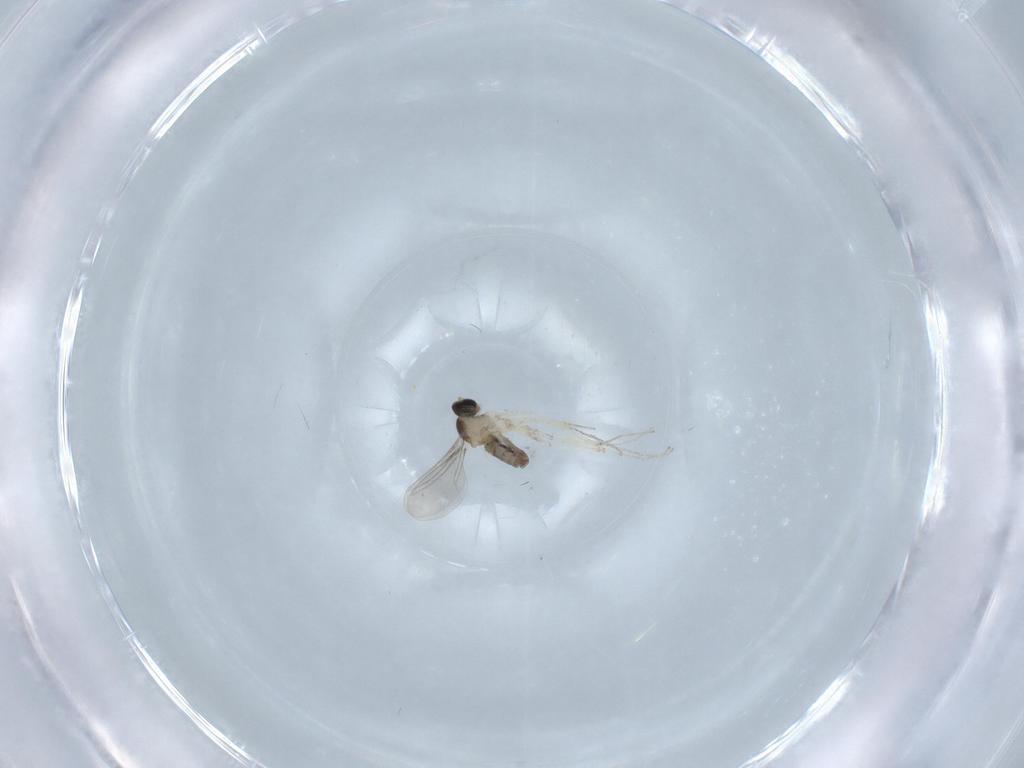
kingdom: Animalia
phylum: Arthropoda
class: Insecta
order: Diptera
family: Cecidomyiidae
